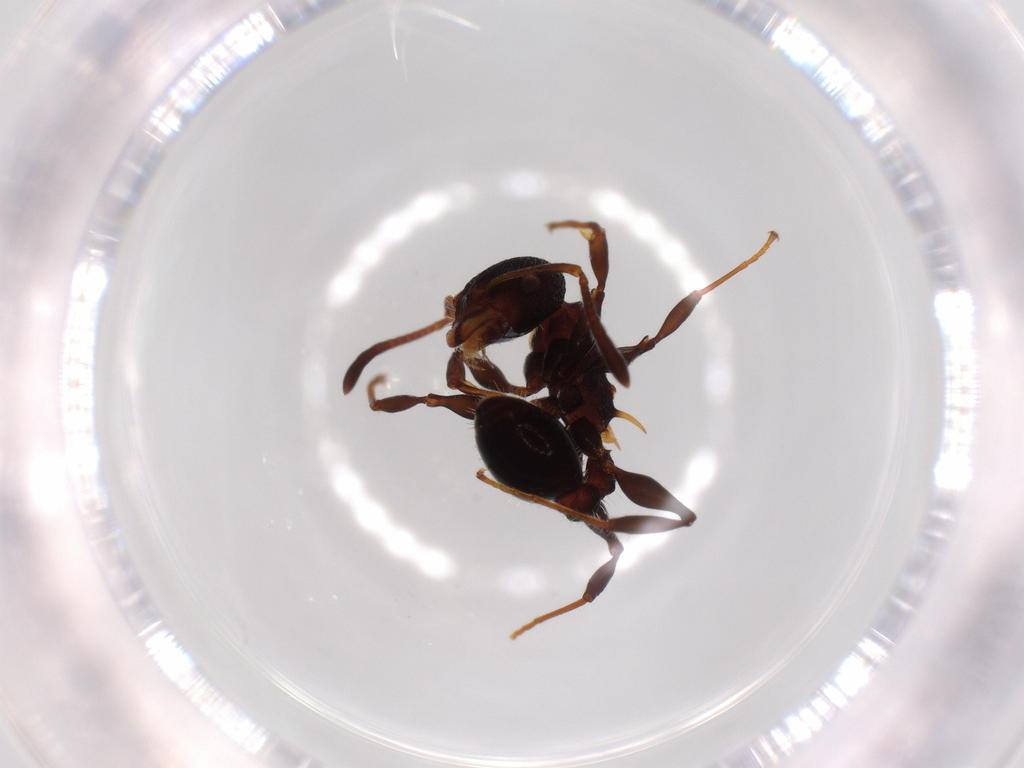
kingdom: Animalia
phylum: Arthropoda
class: Insecta
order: Hymenoptera
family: Formicidae
